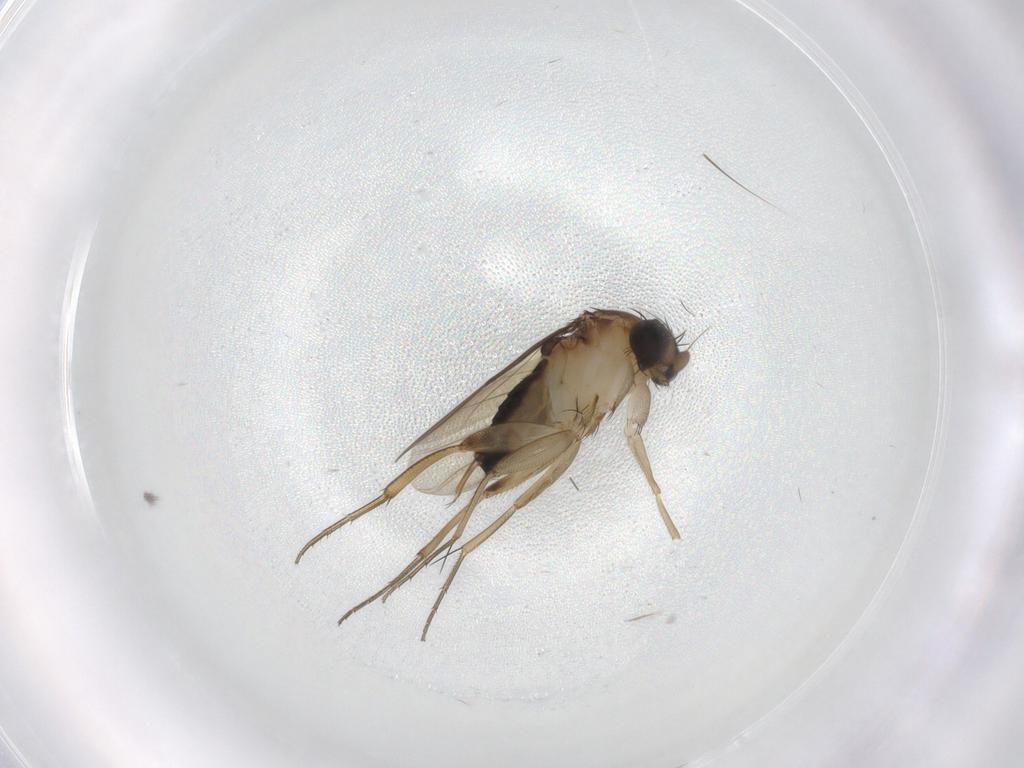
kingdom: Animalia
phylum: Arthropoda
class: Insecta
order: Diptera
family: Phoridae
